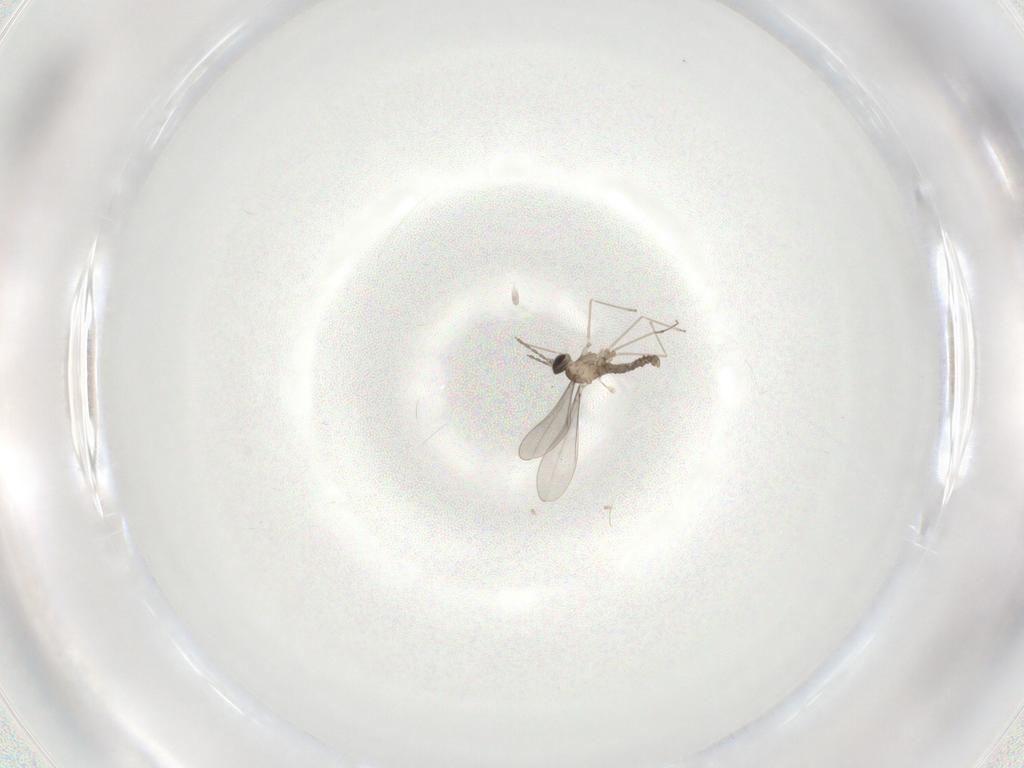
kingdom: Animalia
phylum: Arthropoda
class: Insecta
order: Diptera
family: Cecidomyiidae
